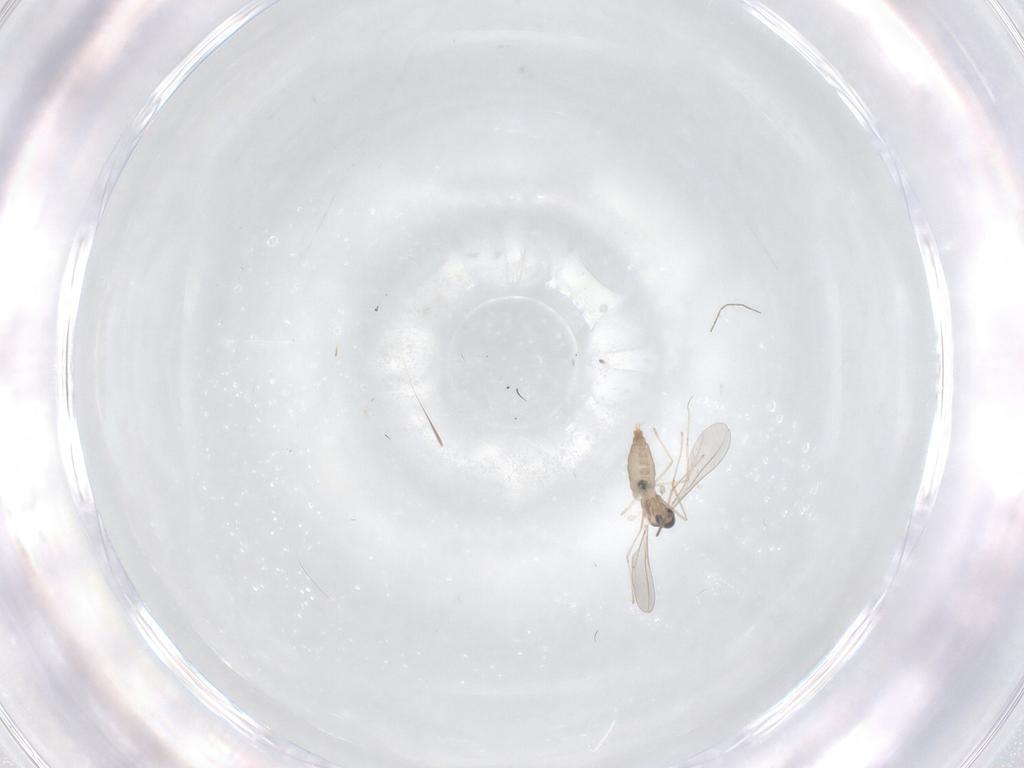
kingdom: Animalia
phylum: Arthropoda
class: Insecta
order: Diptera
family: Milichiidae
